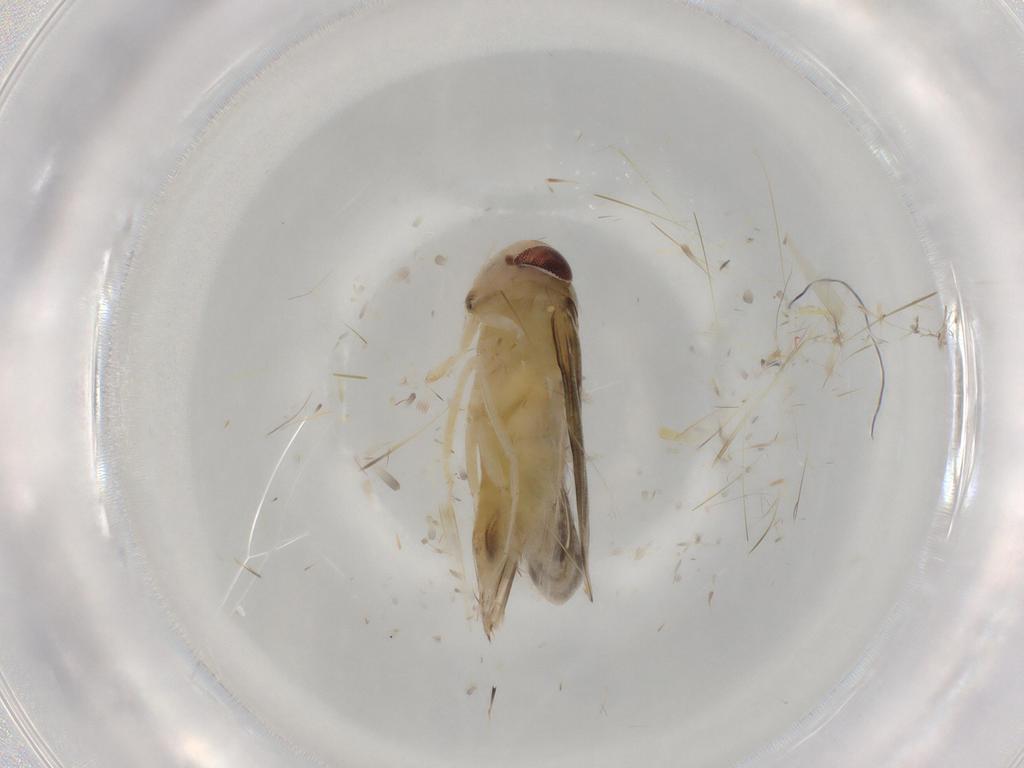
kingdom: Animalia
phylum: Arthropoda
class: Insecta
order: Hemiptera
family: Corixidae
